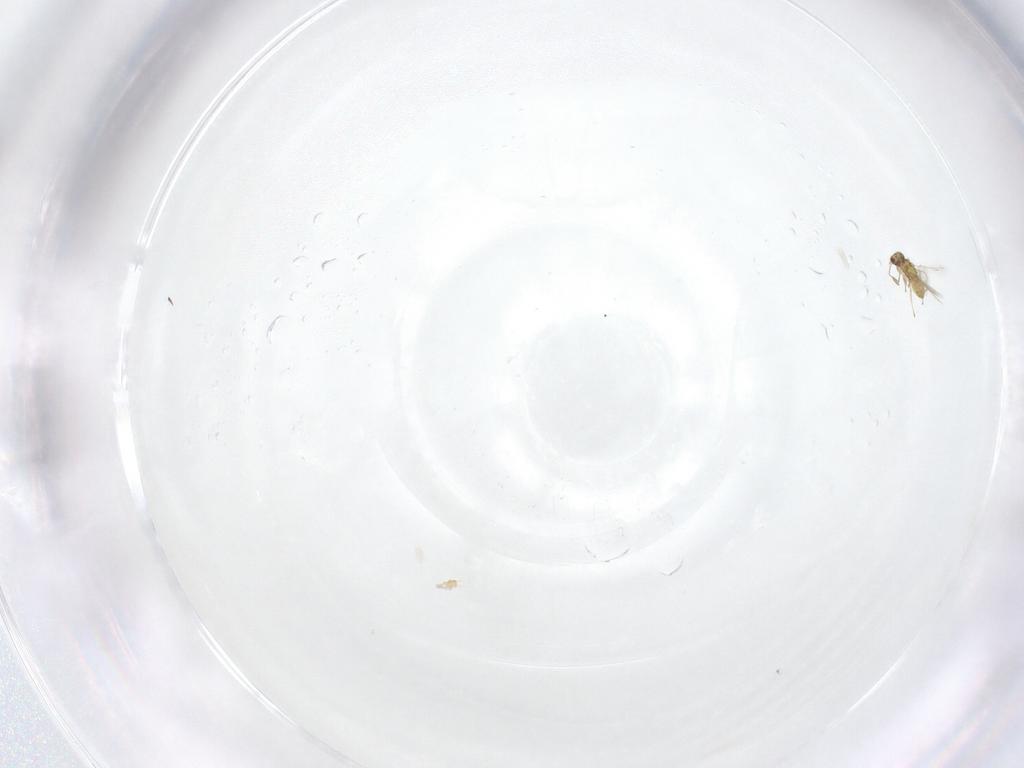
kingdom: Animalia
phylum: Arthropoda
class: Insecta
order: Hymenoptera
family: Mymaridae
